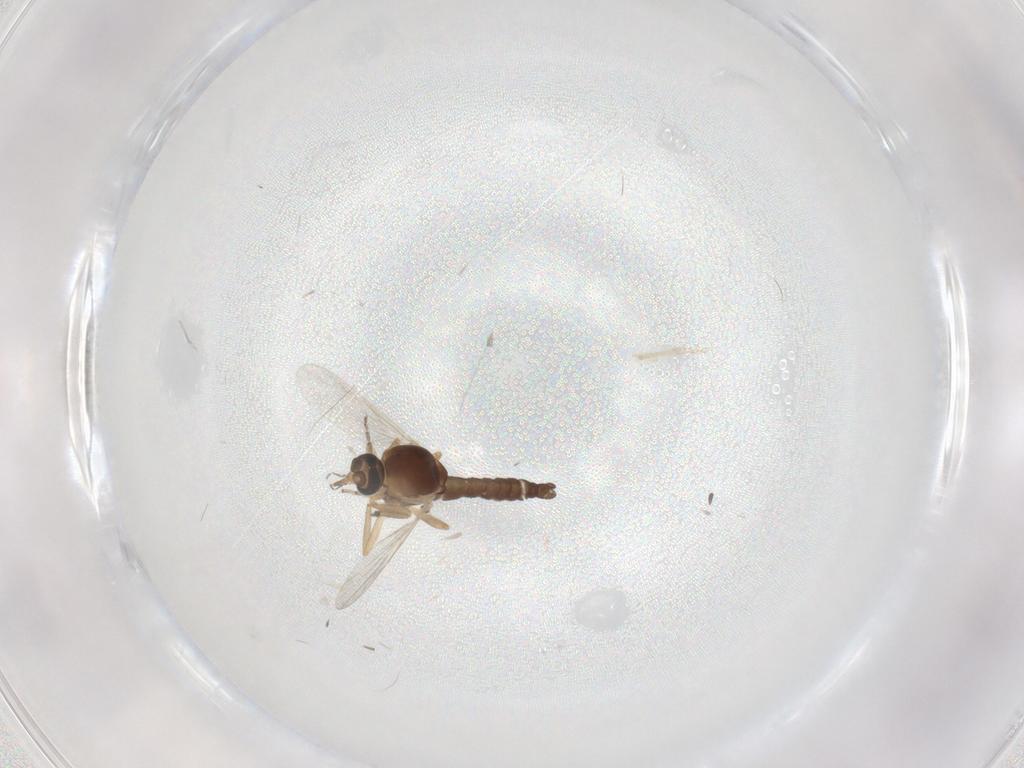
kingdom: Animalia
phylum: Arthropoda
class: Insecta
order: Diptera
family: Ceratopogonidae
